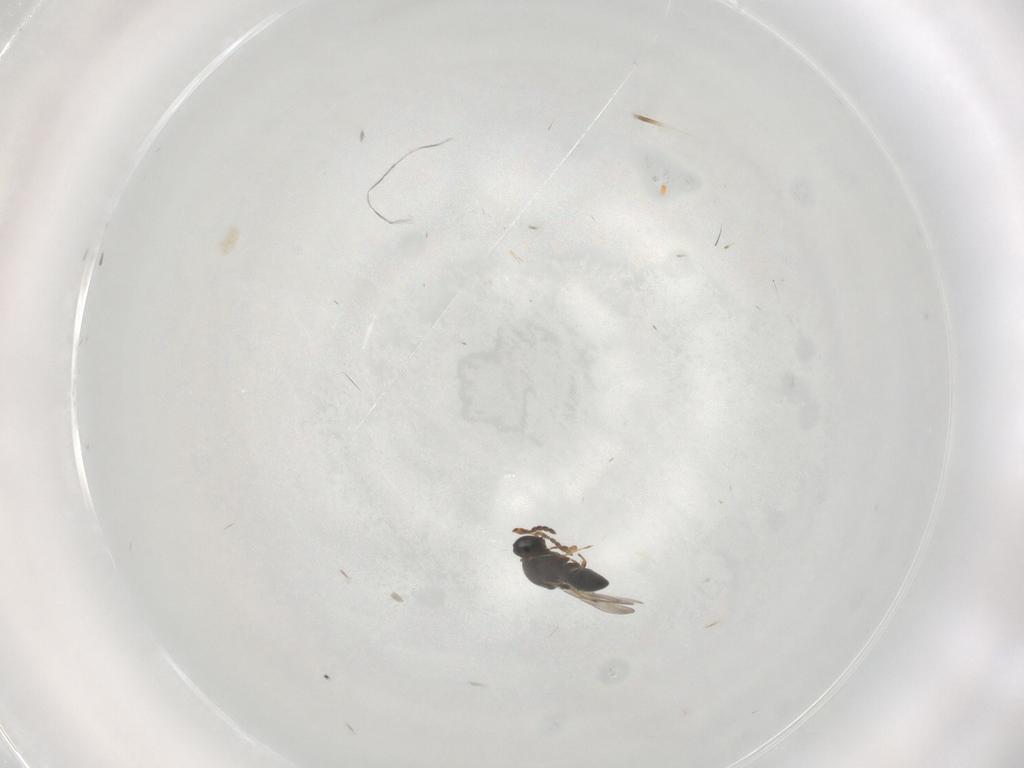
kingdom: Animalia
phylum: Arthropoda
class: Insecta
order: Hymenoptera
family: Platygastridae
